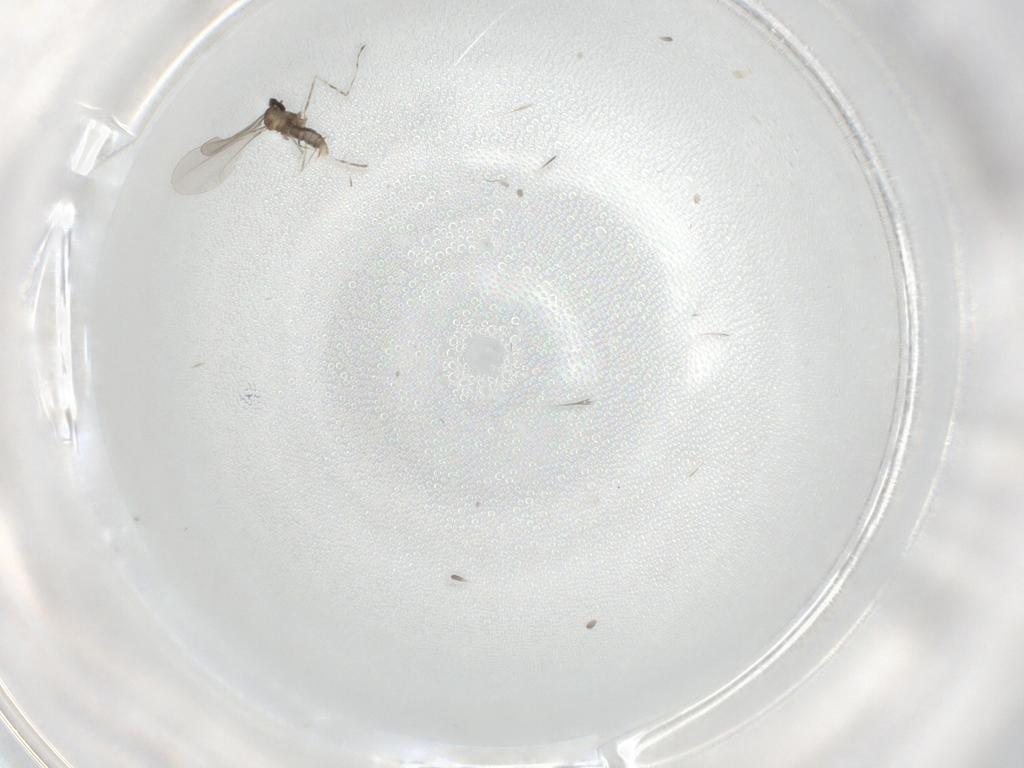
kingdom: Animalia
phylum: Arthropoda
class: Insecta
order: Diptera
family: Cecidomyiidae
